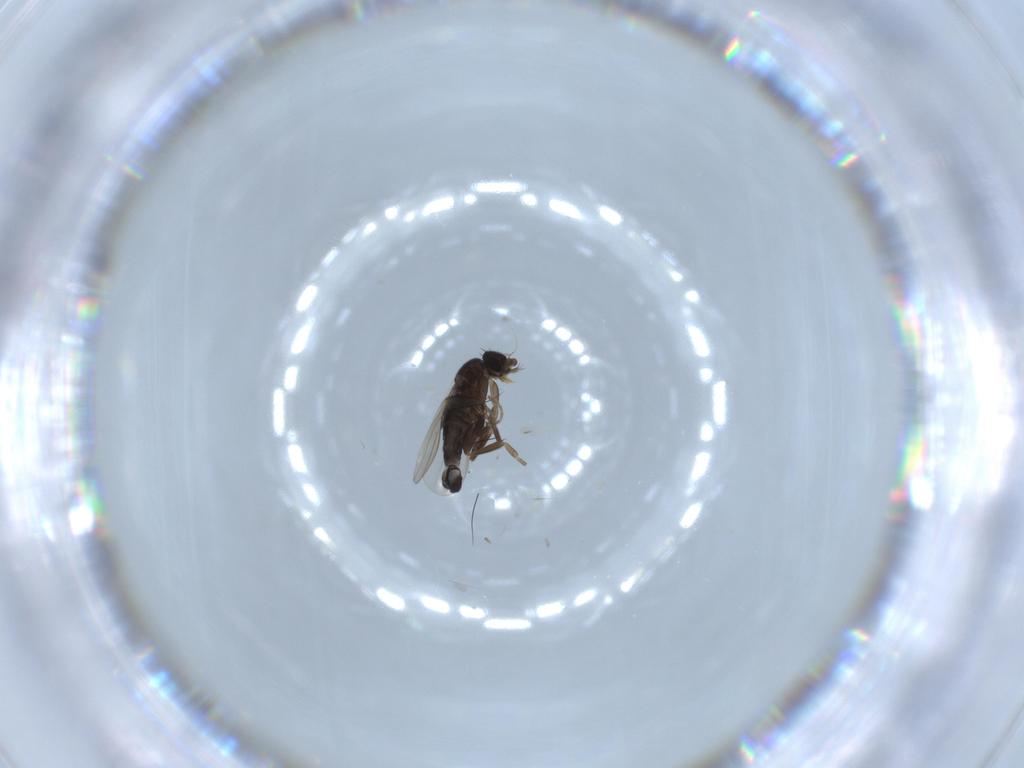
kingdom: Animalia
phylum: Arthropoda
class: Insecta
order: Diptera
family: Phoridae
